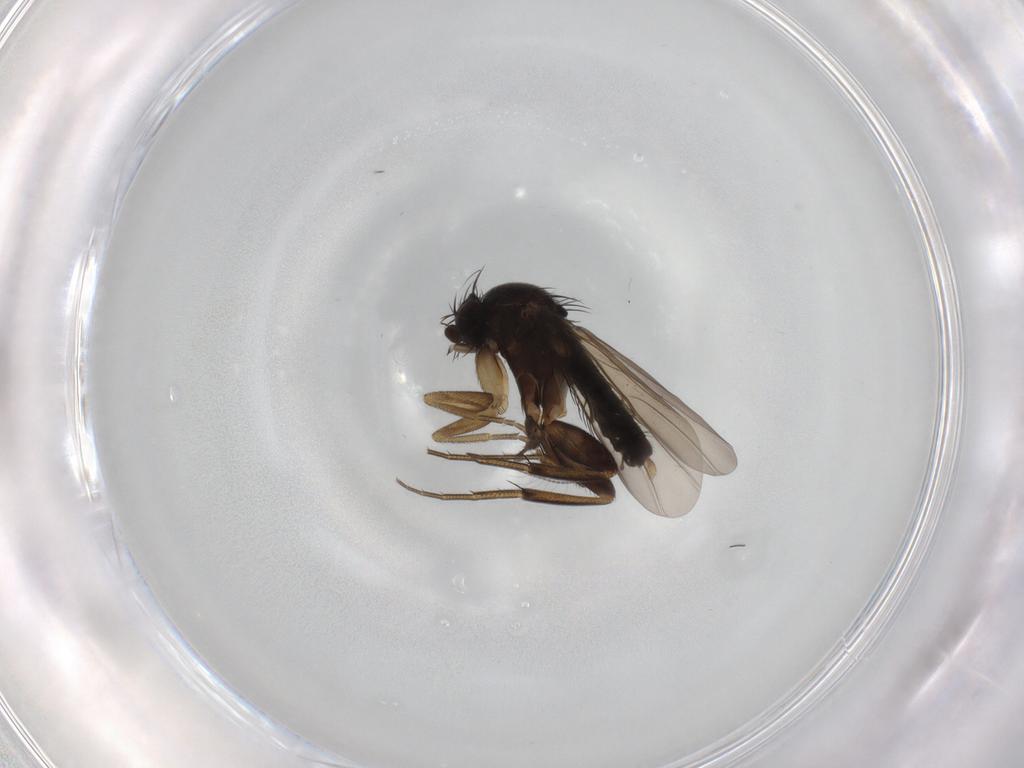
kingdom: Animalia
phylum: Arthropoda
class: Insecta
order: Diptera
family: Phoridae
